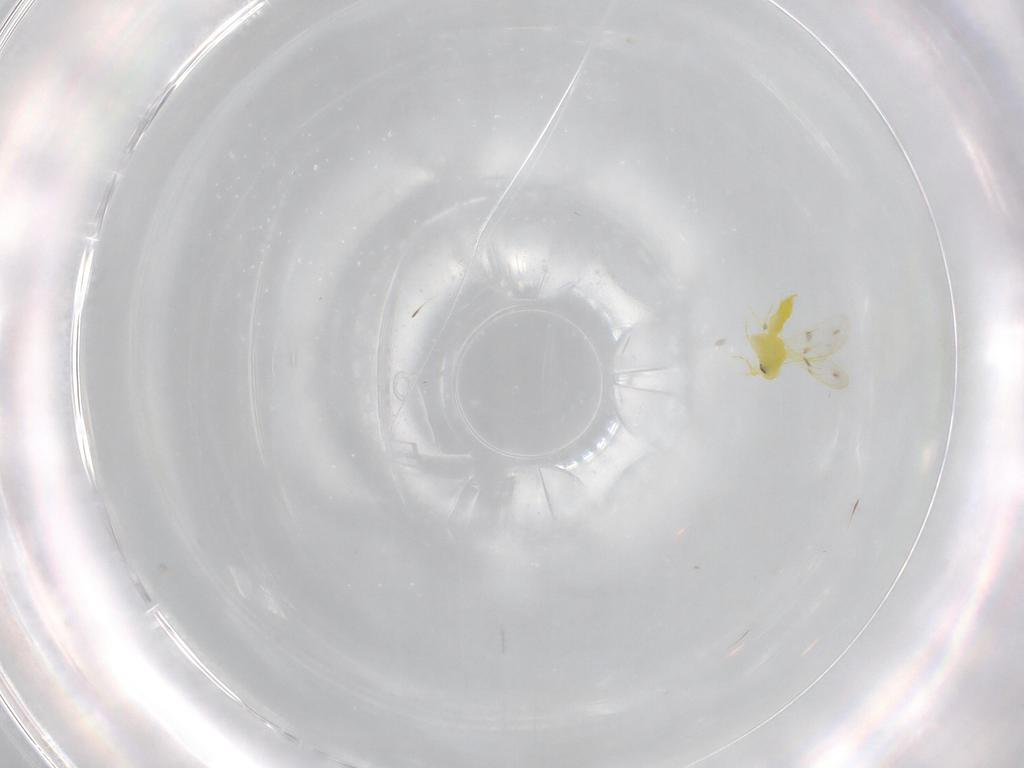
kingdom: Animalia
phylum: Arthropoda
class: Insecta
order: Hemiptera
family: Aleyrodidae
